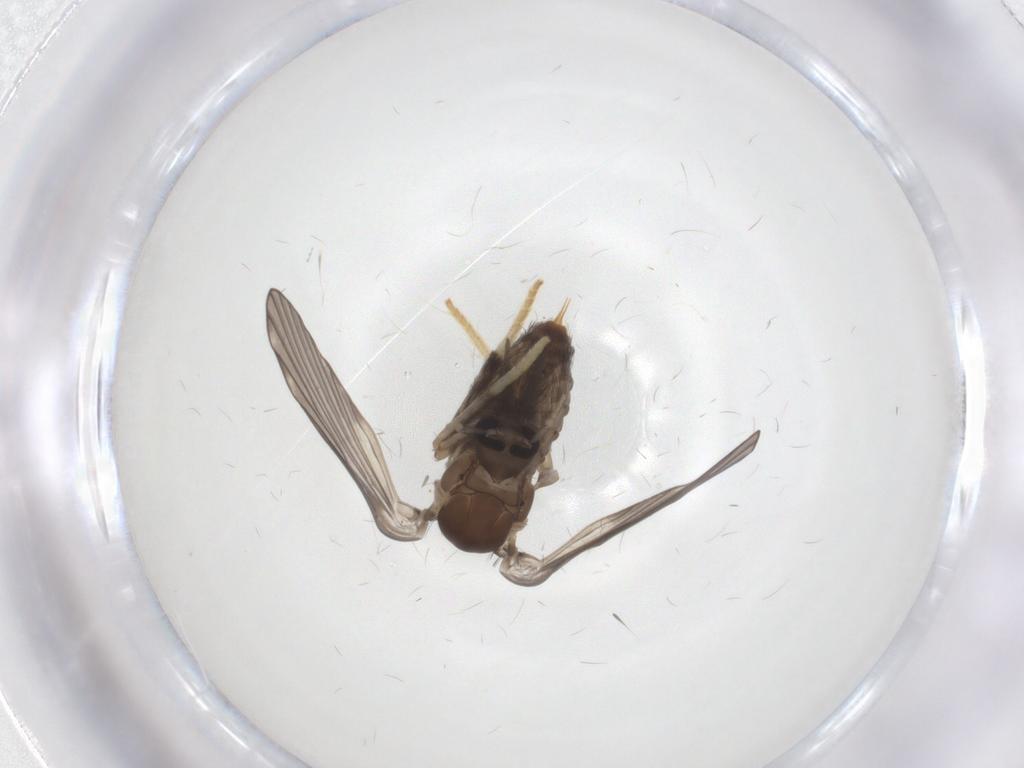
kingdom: Animalia
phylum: Arthropoda
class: Insecta
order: Diptera
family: Psychodidae
